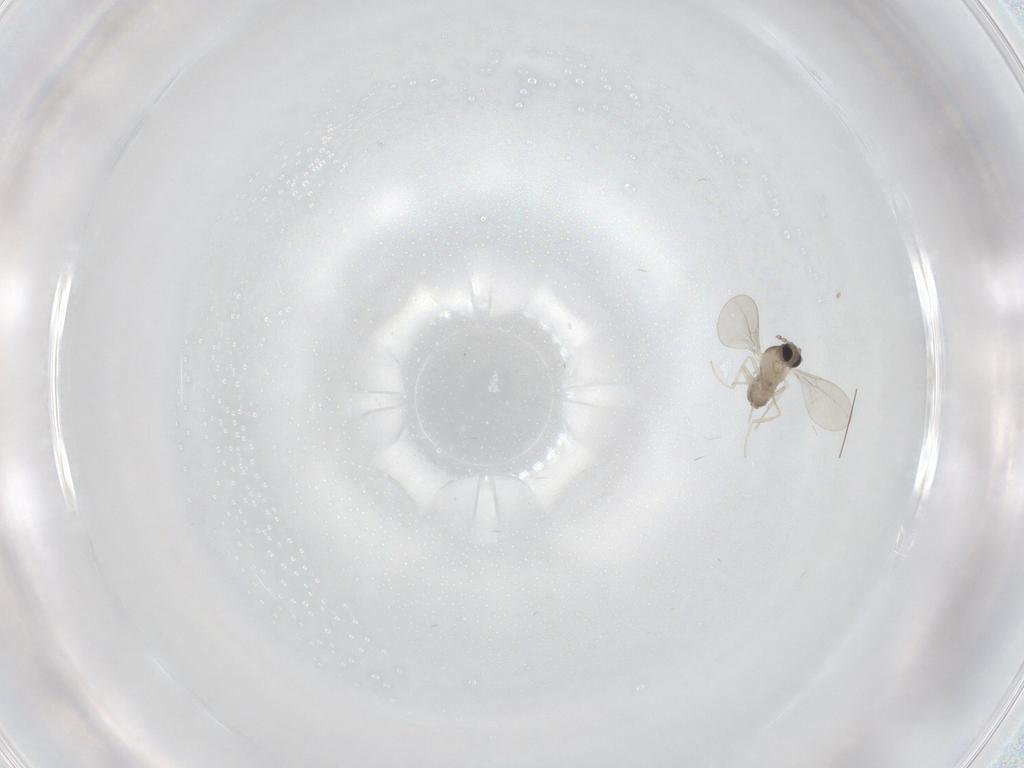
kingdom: Animalia
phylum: Arthropoda
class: Insecta
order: Diptera
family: Cecidomyiidae
